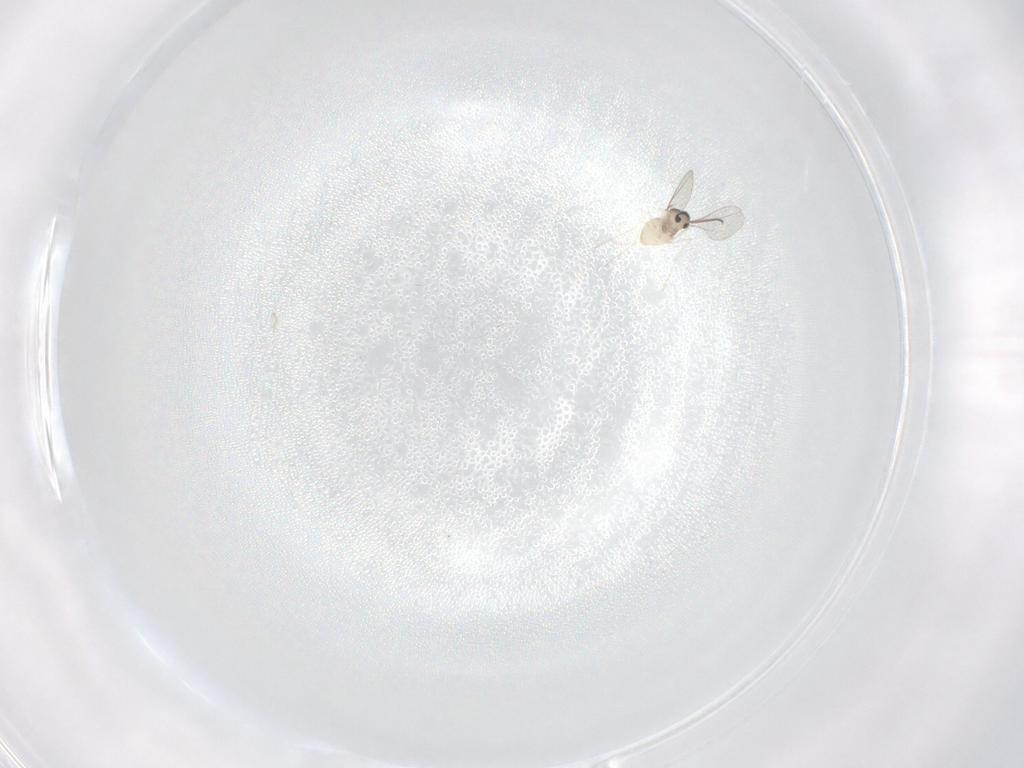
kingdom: Animalia
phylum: Arthropoda
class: Insecta
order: Diptera
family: Cecidomyiidae
